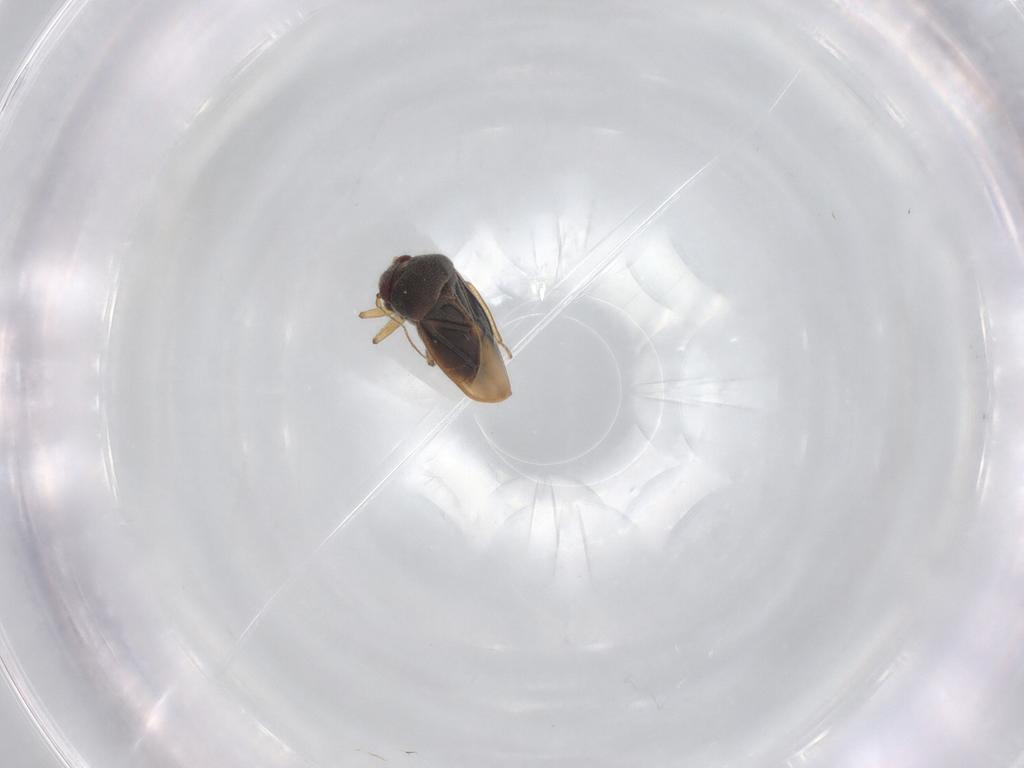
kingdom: Animalia
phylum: Arthropoda
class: Insecta
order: Hemiptera
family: Schizopteridae
